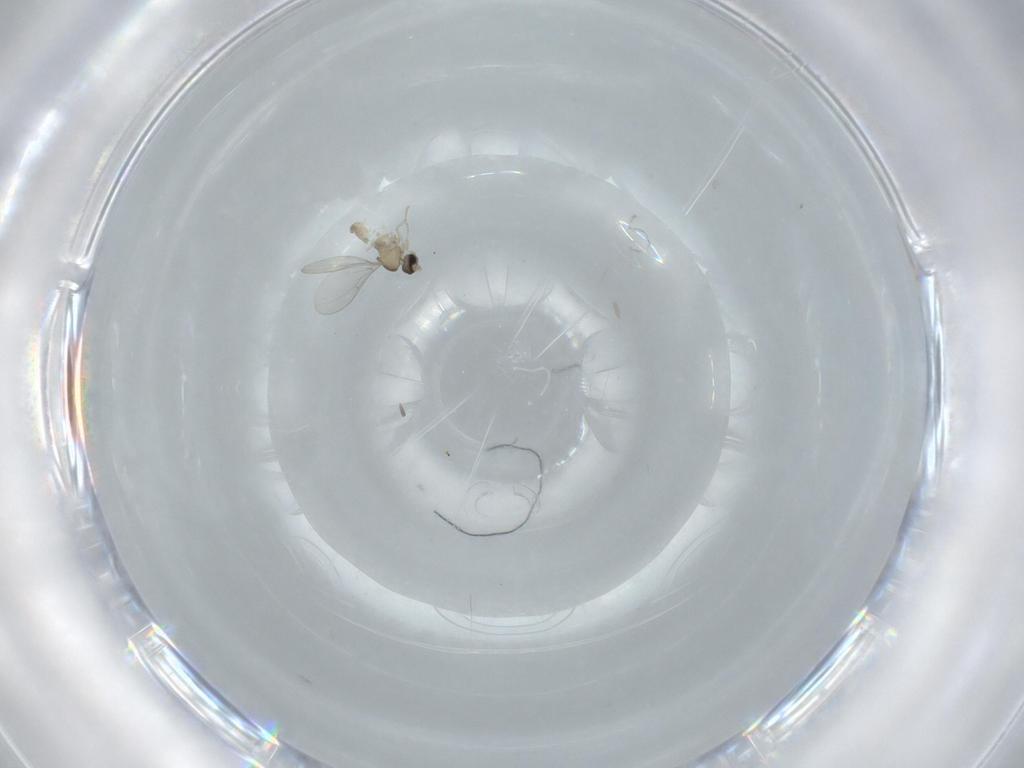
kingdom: Animalia
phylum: Arthropoda
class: Insecta
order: Diptera
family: Cecidomyiidae
